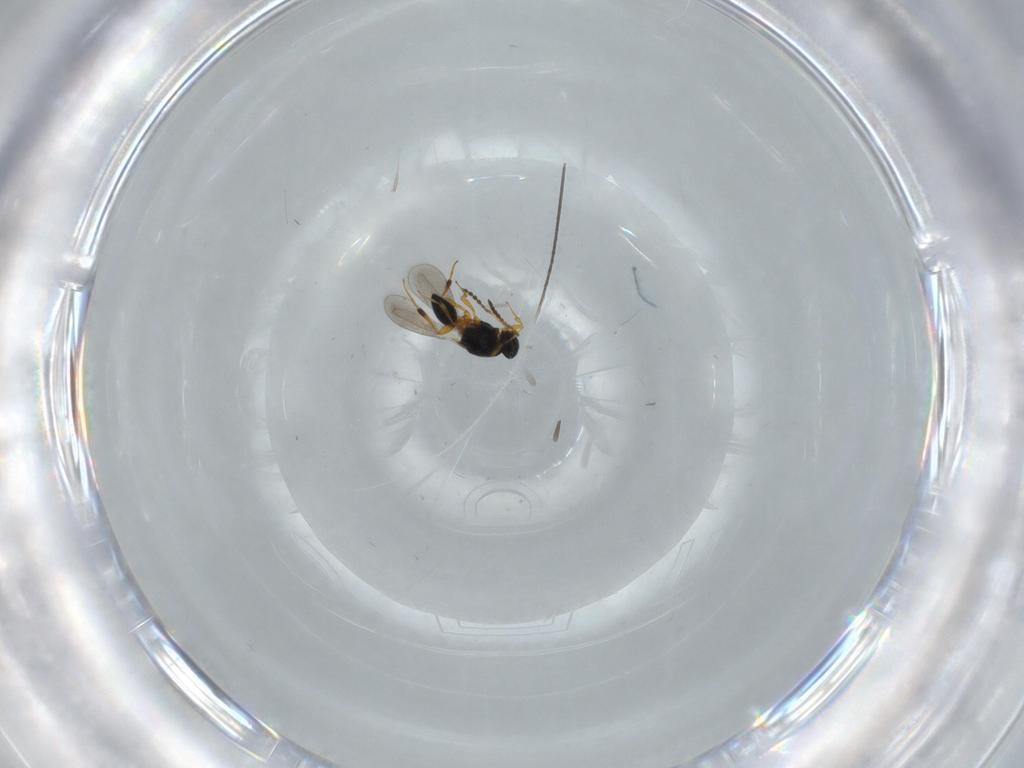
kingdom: Animalia
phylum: Arthropoda
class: Insecta
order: Hymenoptera
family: Platygastridae
